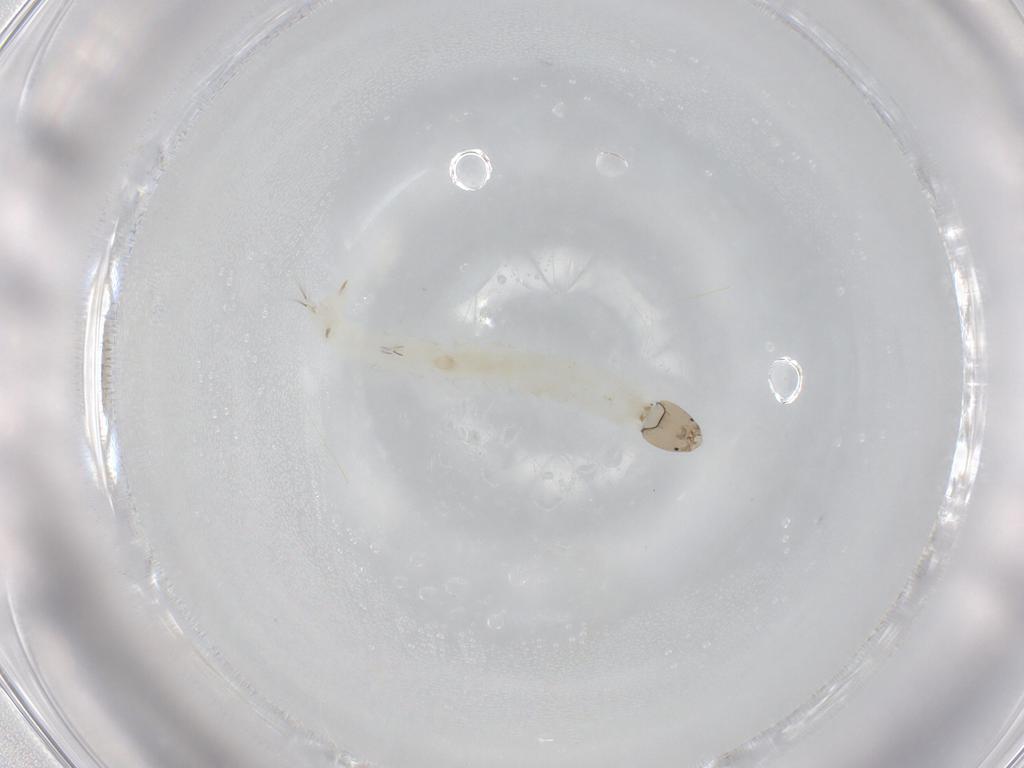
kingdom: Animalia
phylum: Arthropoda
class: Insecta
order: Diptera
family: Chironomidae
